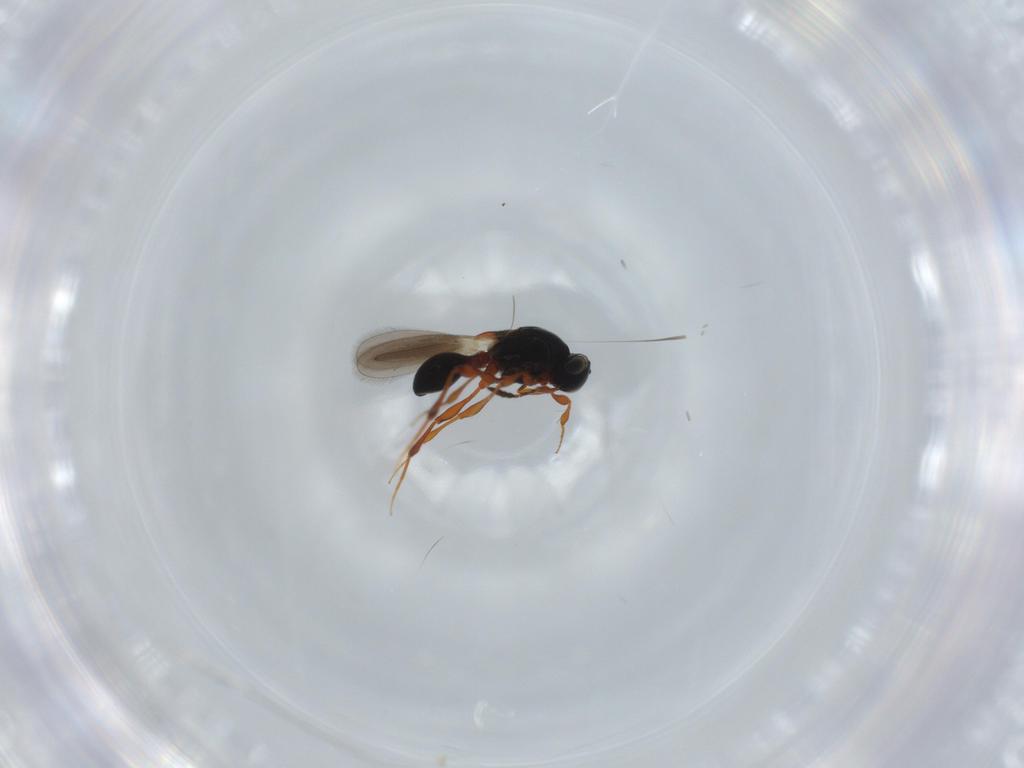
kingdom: Animalia
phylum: Arthropoda
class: Insecta
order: Hymenoptera
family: Platygastridae
